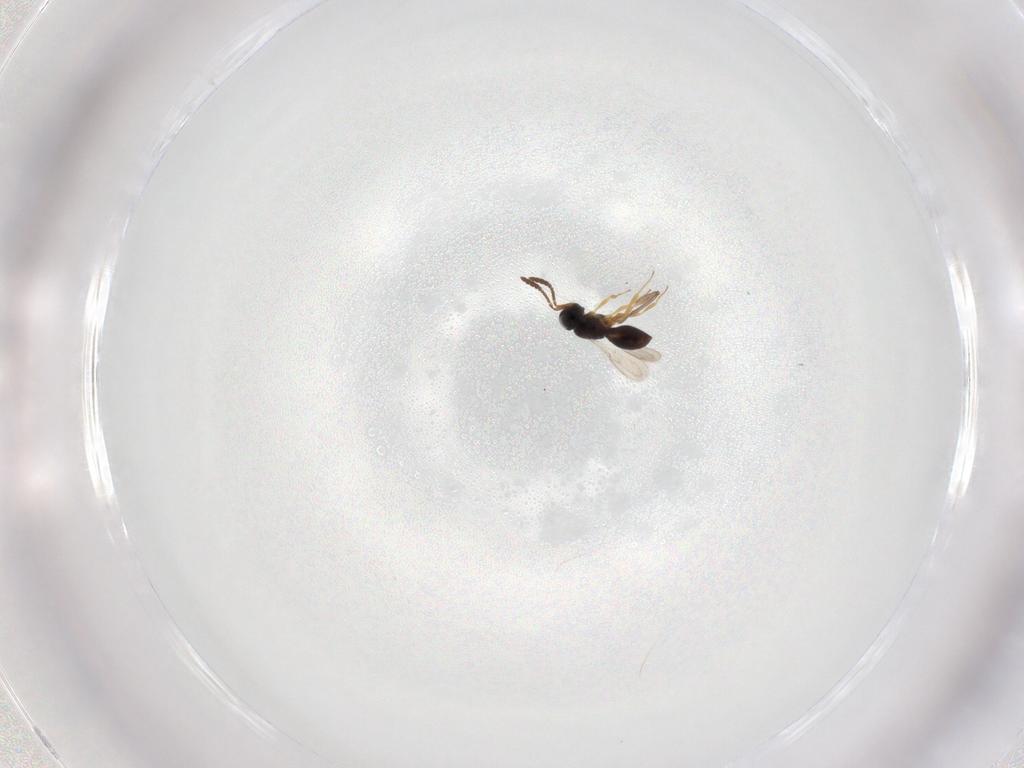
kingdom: Animalia
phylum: Arthropoda
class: Insecta
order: Hymenoptera
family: Scelionidae
